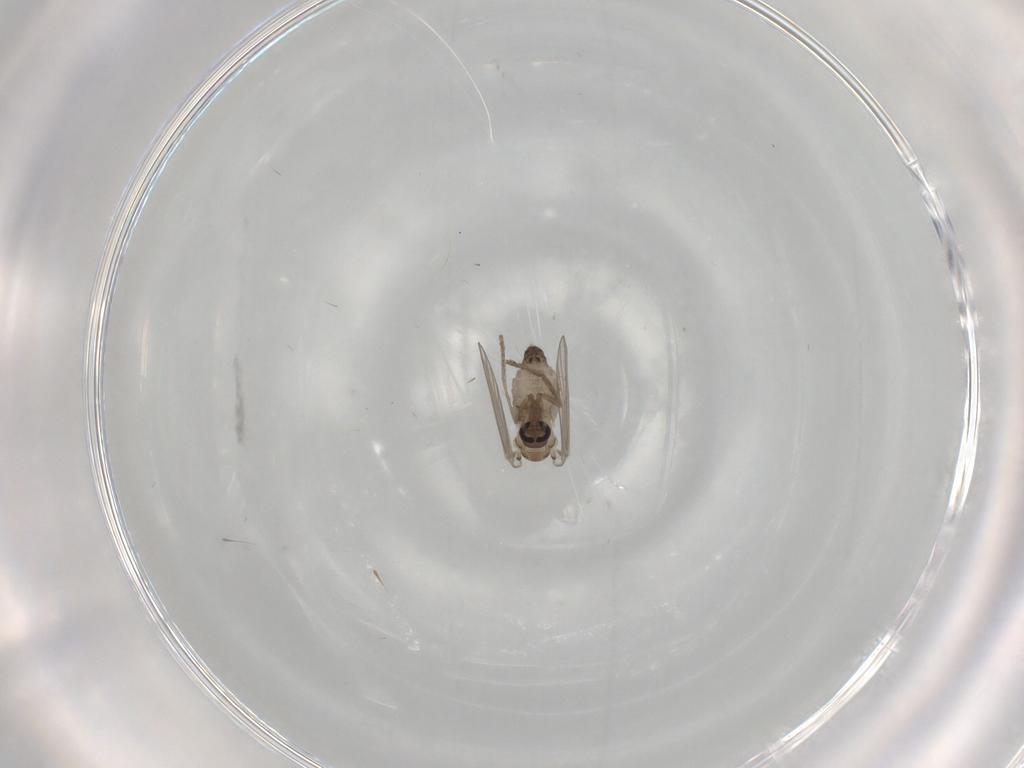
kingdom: Animalia
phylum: Arthropoda
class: Insecta
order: Diptera
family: Psychodidae
